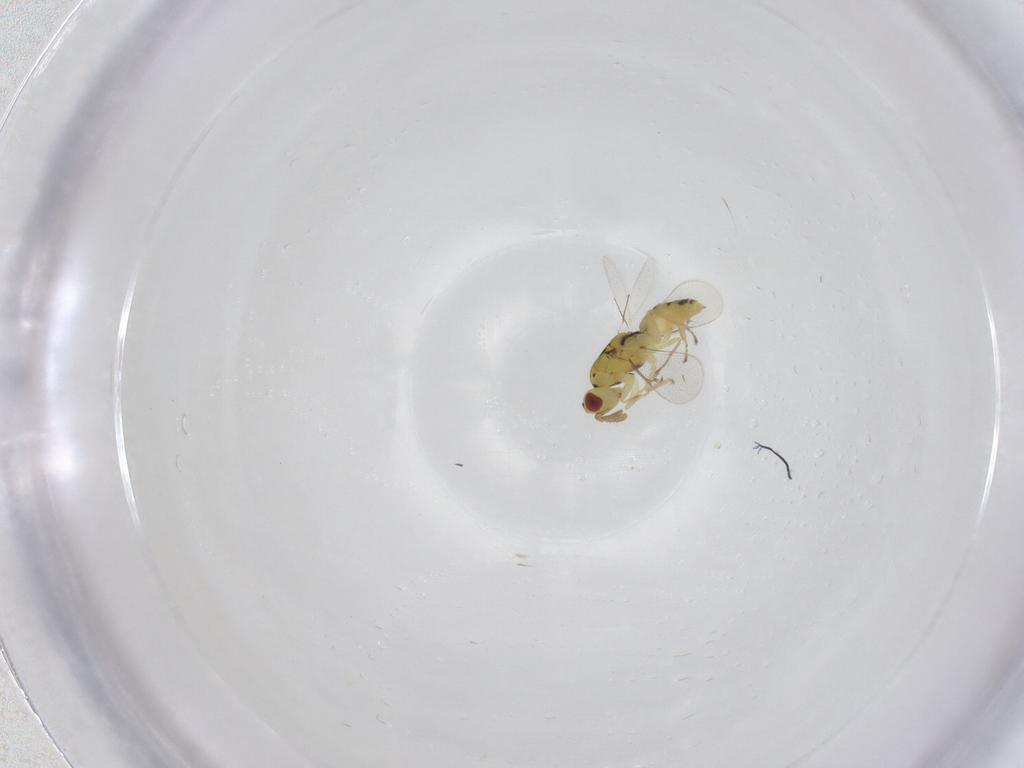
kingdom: Animalia
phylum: Arthropoda
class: Insecta
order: Hymenoptera
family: Eulophidae
